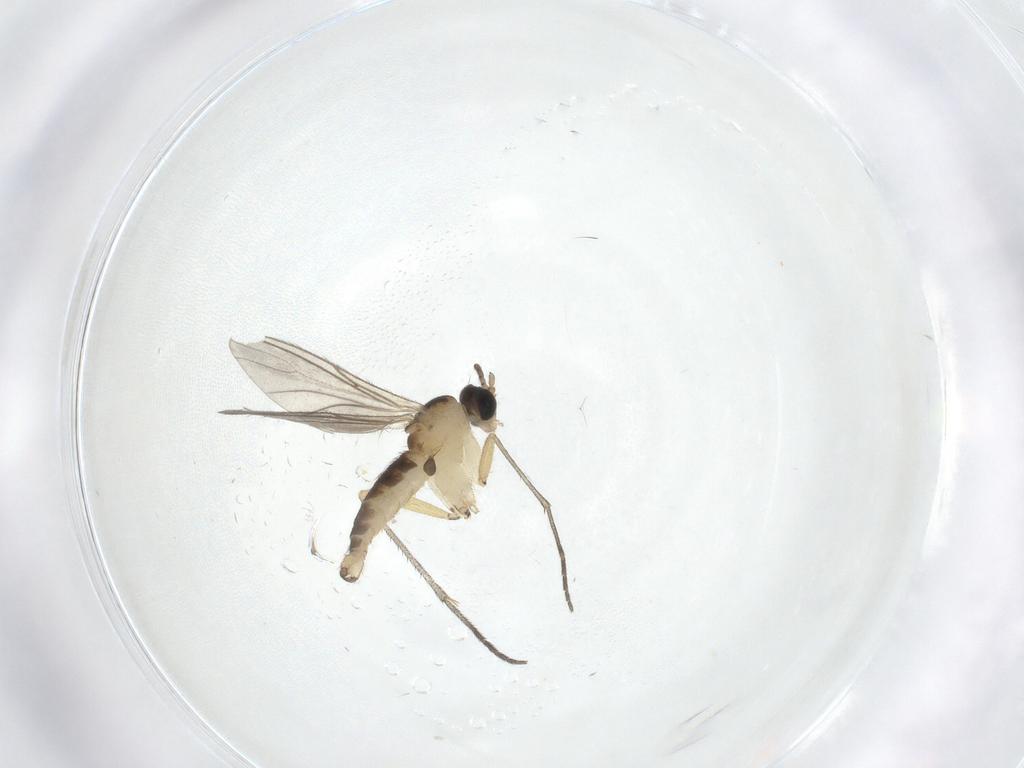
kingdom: Animalia
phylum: Arthropoda
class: Insecta
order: Diptera
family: Sciaridae
